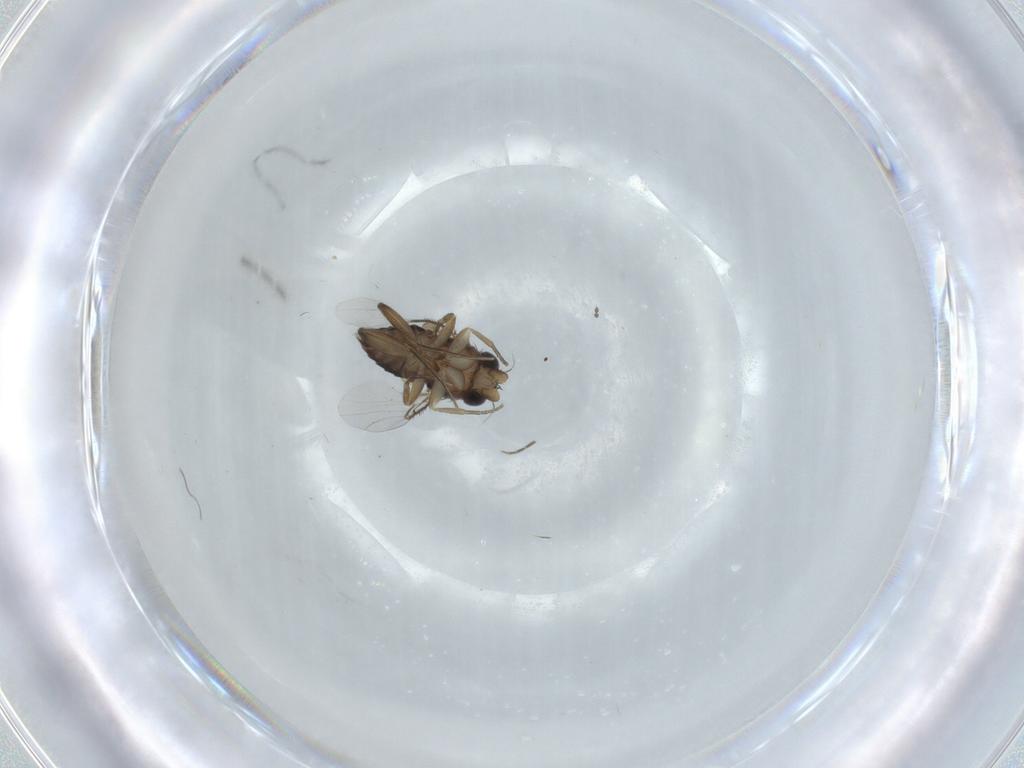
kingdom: Animalia
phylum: Arthropoda
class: Insecta
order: Diptera
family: Phoridae
